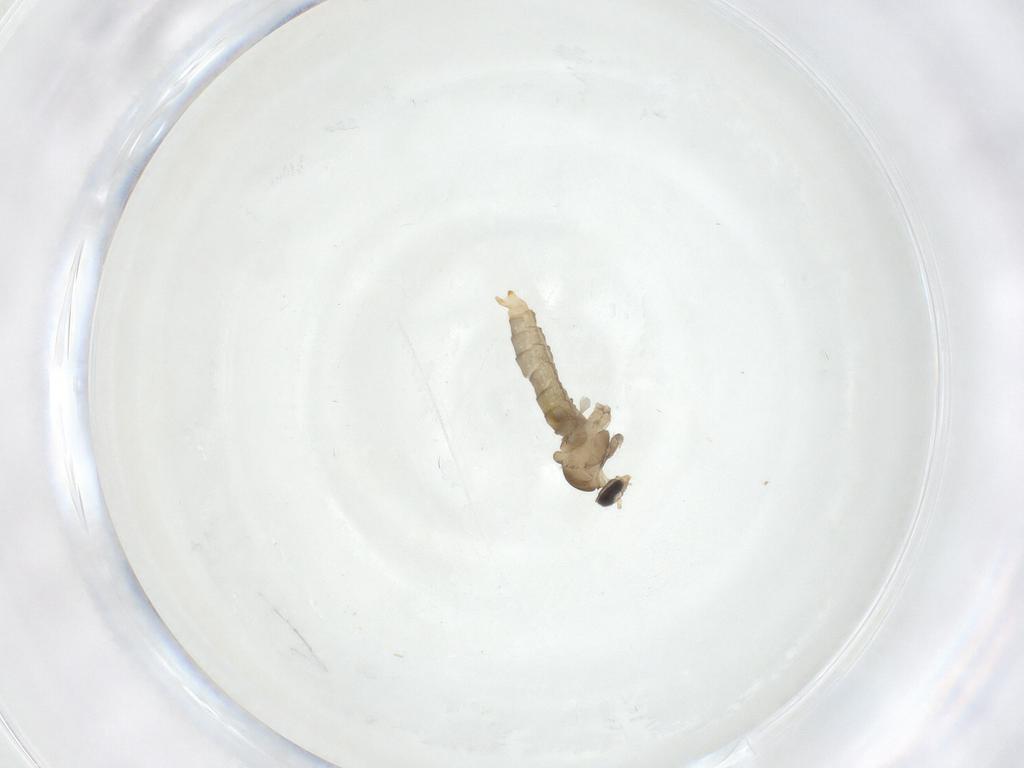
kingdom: Animalia
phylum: Arthropoda
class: Insecta
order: Diptera
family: Cecidomyiidae
